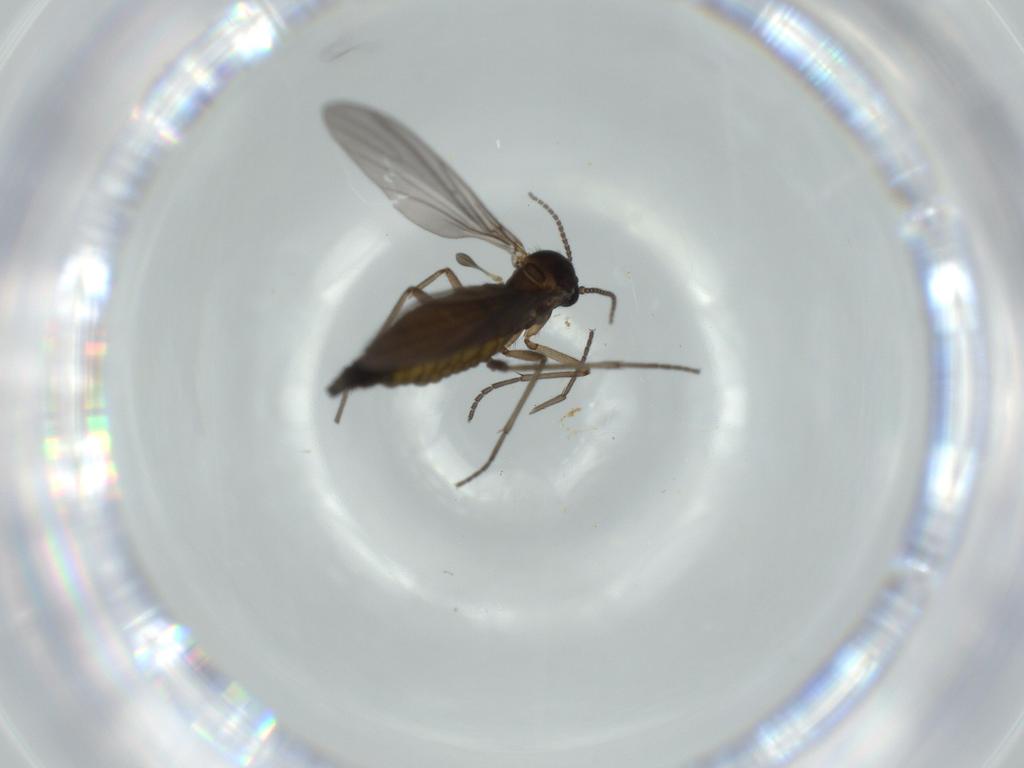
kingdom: Animalia
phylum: Arthropoda
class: Insecta
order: Diptera
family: Sciaridae
